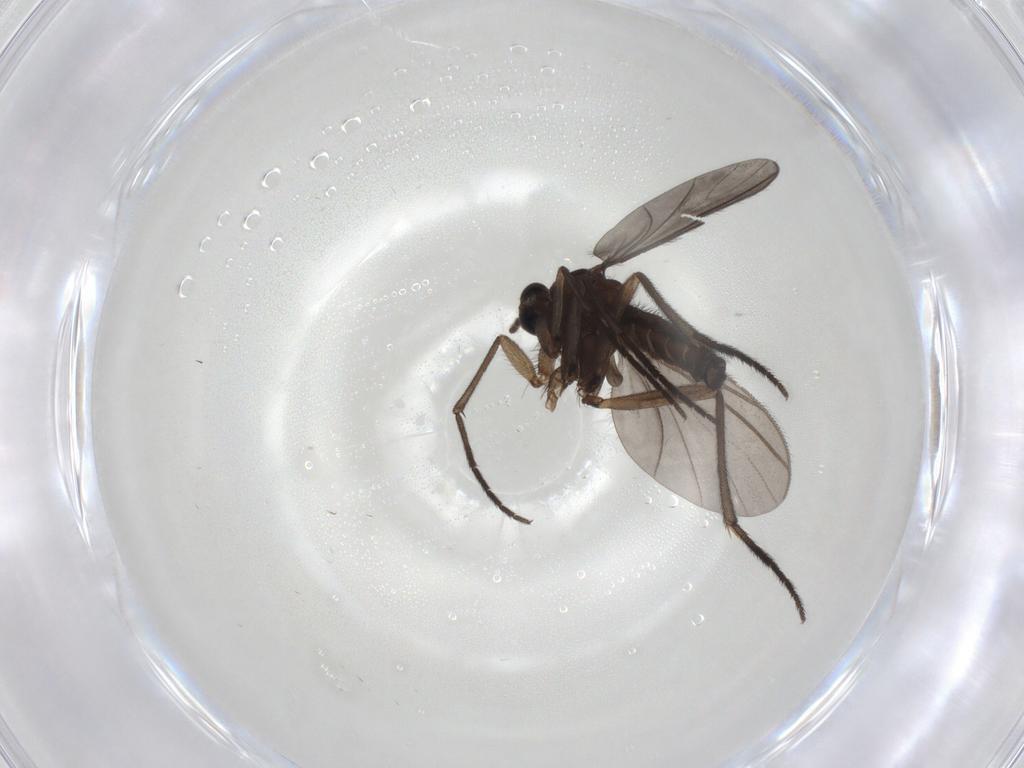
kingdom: Animalia
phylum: Arthropoda
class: Insecta
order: Diptera
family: Sciaridae
